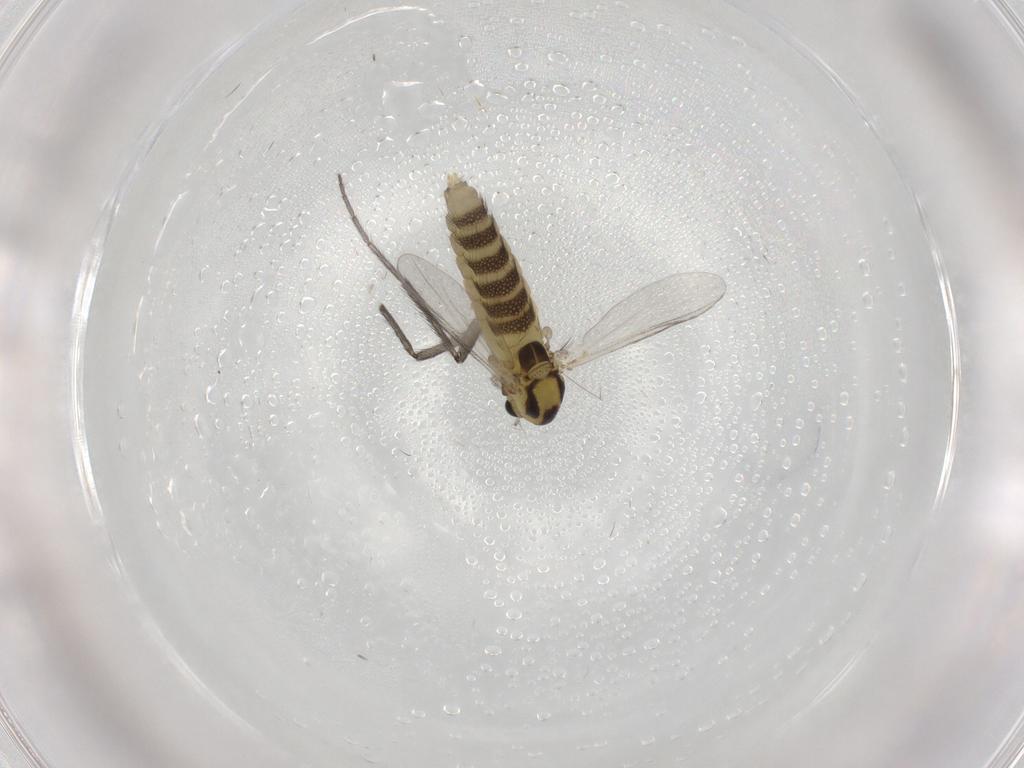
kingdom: Animalia
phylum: Arthropoda
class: Insecta
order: Diptera
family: Chironomidae
